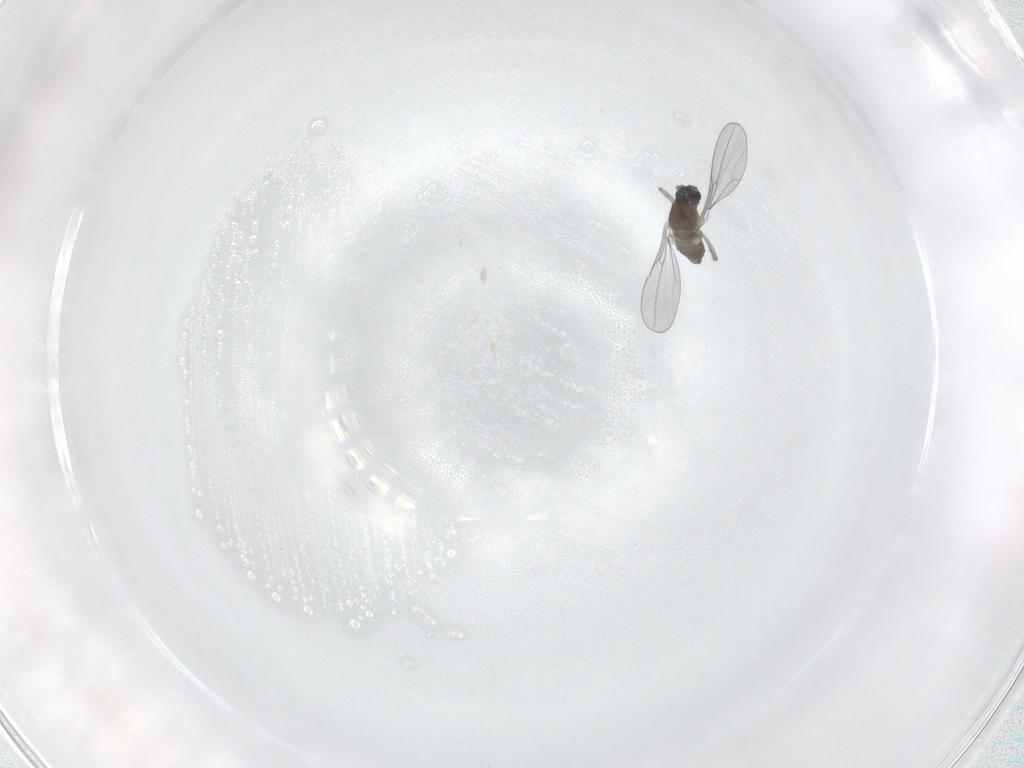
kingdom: Animalia
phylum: Arthropoda
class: Insecta
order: Diptera
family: Cecidomyiidae
